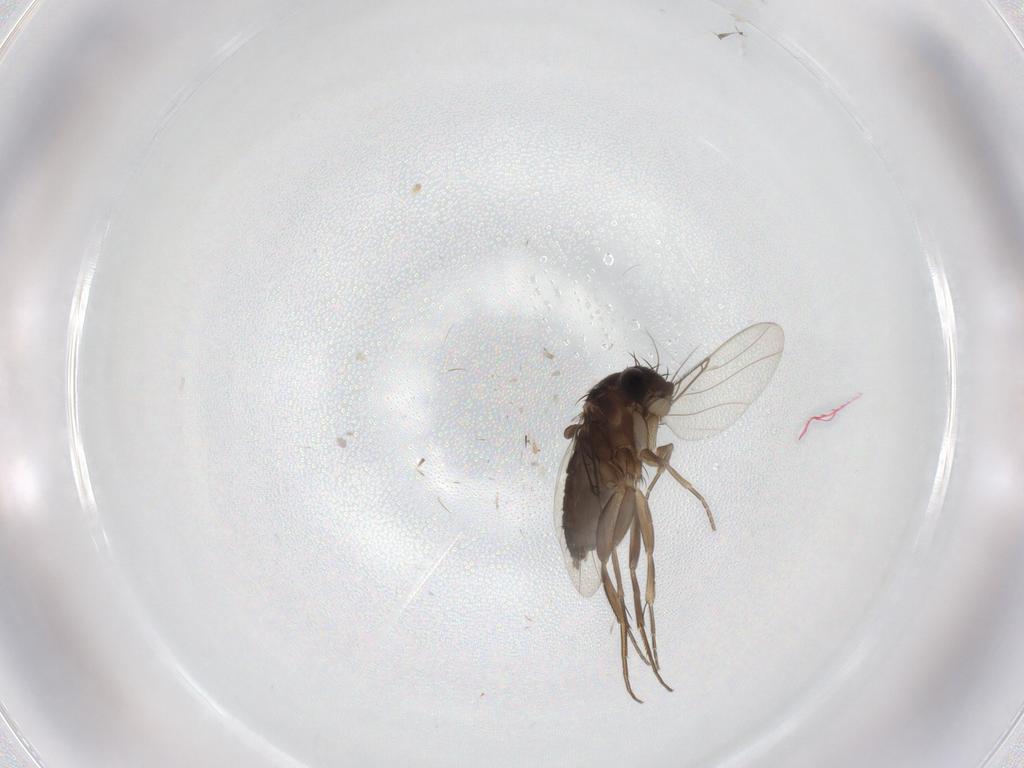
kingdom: Animalia
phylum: Arthropoda
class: Insecta
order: Diptera
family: Phoridae
